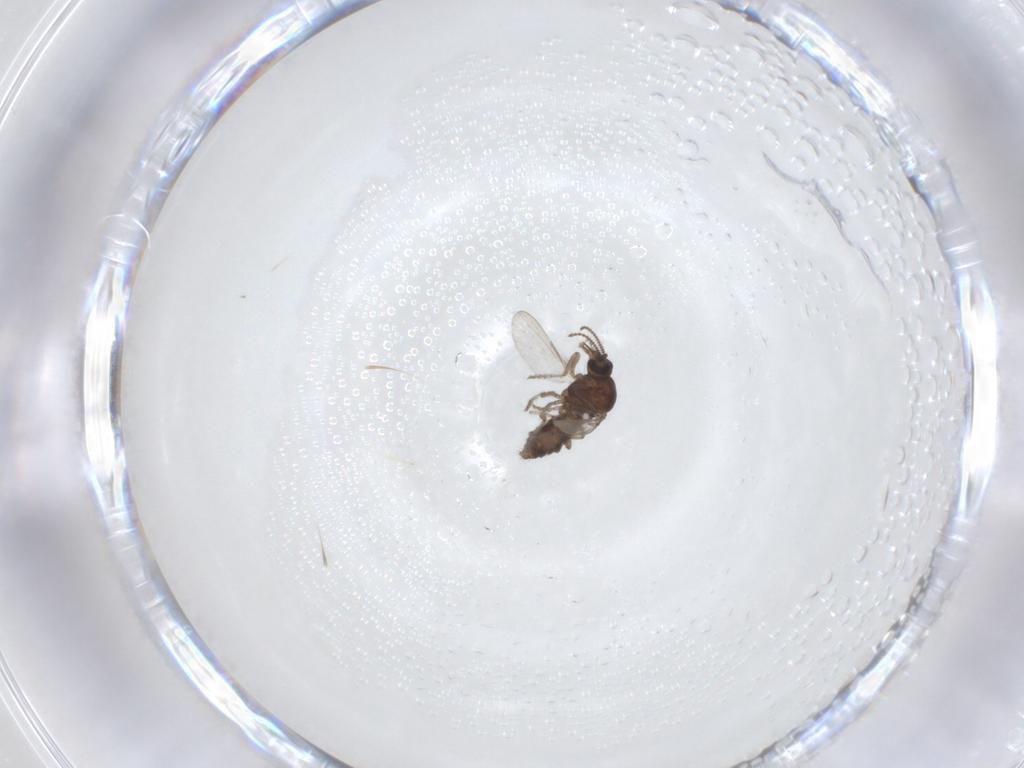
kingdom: Animalia
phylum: Arthropoda
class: Insecta
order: Diptera
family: Ceratopogonidae
